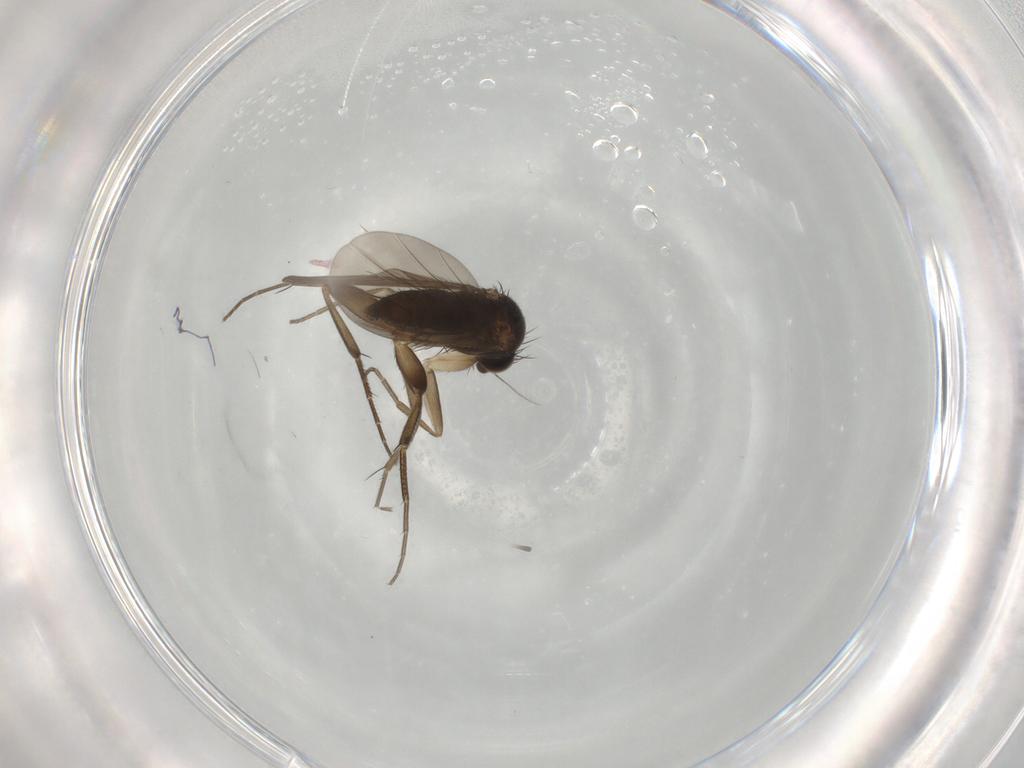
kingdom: Animalia
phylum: Arthropoda
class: Insecta
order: Diptera
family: Phoridae
